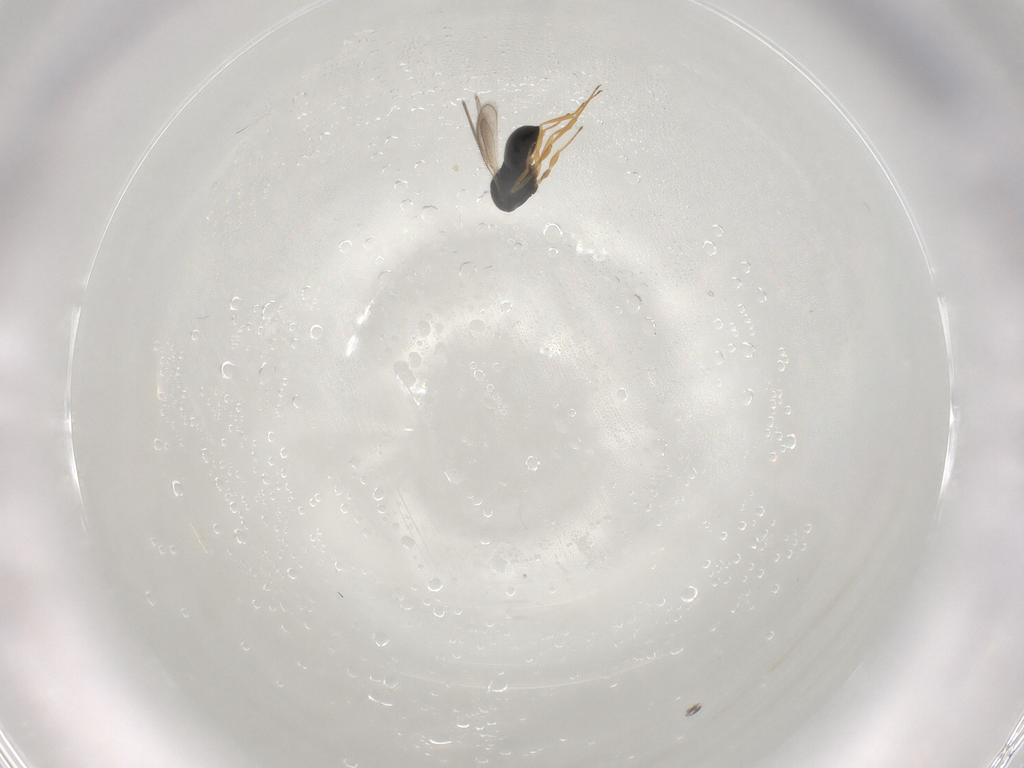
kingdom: Animalia
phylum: Arthropoda
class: Insecta
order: Hymenoptera
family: Scelionidae
